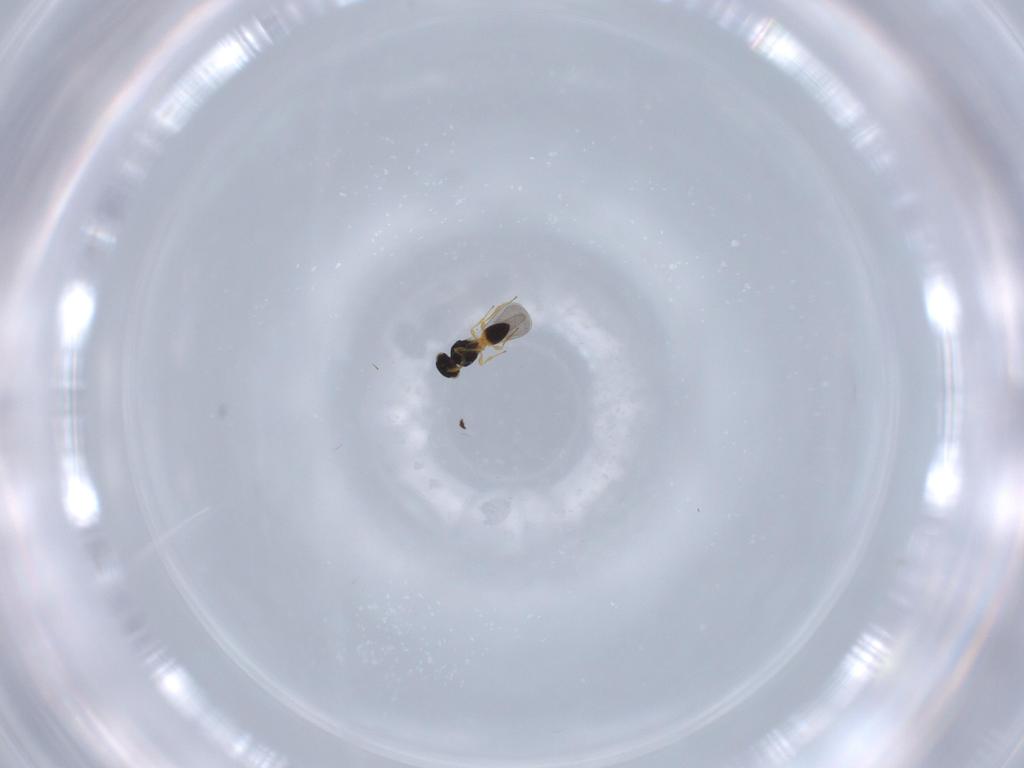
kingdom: Animalia
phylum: Arthropoda
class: Insecta
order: Hymenoptera
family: Platygastridae
